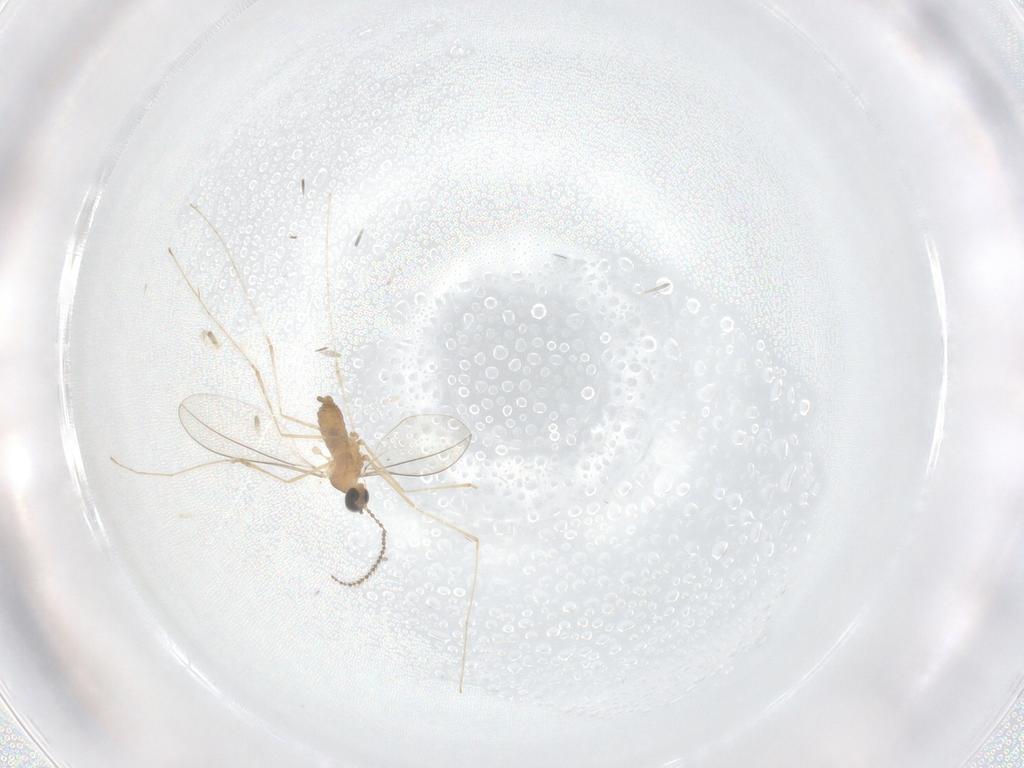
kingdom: Animalia
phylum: Arthropoda
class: Insecta
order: Diptera
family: Cecidomyiidae
